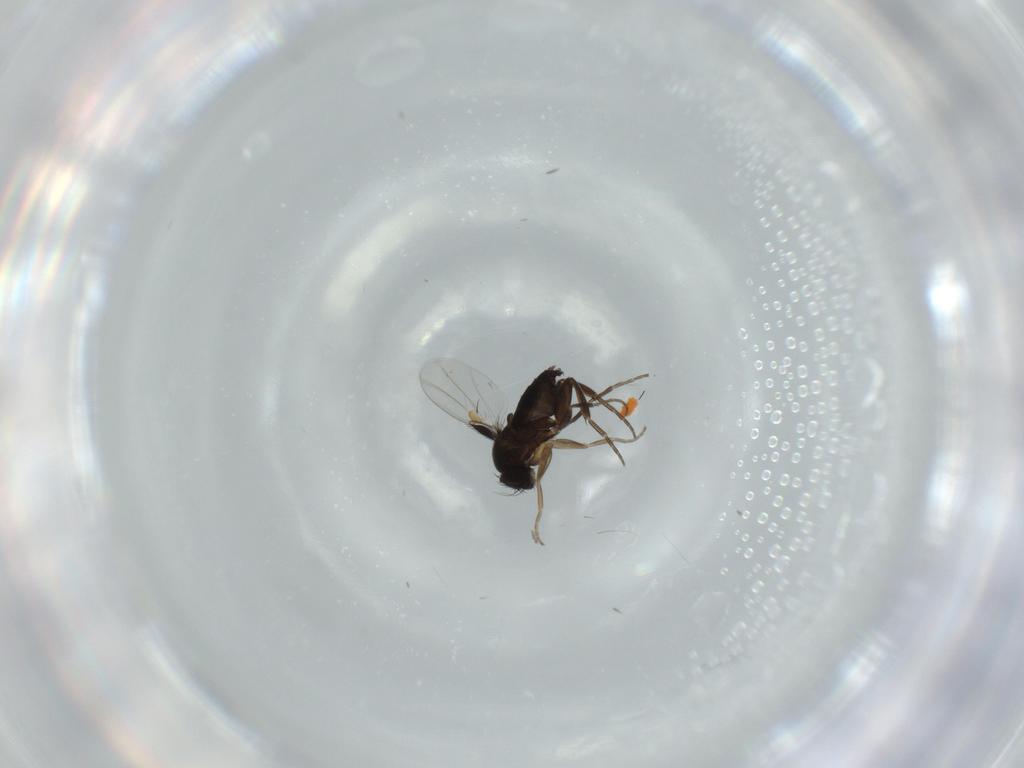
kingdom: Animalia
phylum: Arthropoda
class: Insecta
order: Diptera
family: Phoridae
